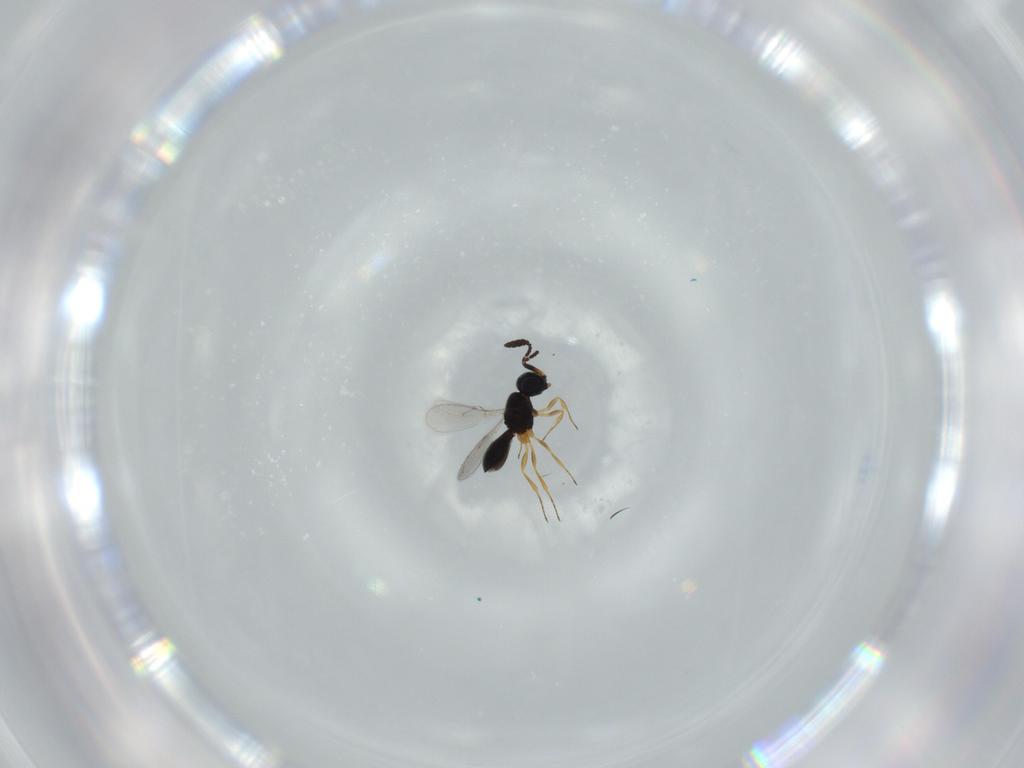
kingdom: Animalia
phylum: Arthropoda
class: Insecta
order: Hymenoptera
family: Scelionidae
